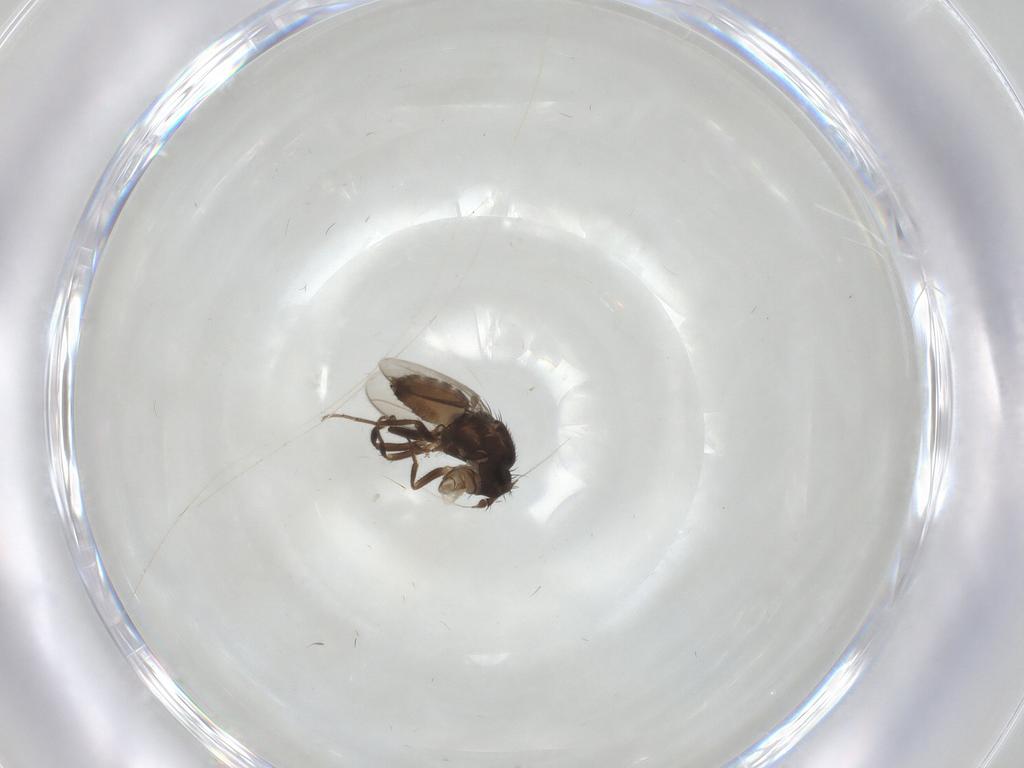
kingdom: Animalia
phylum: Arthropoda
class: Insecta
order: Diptera
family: Sphaeroceridae
